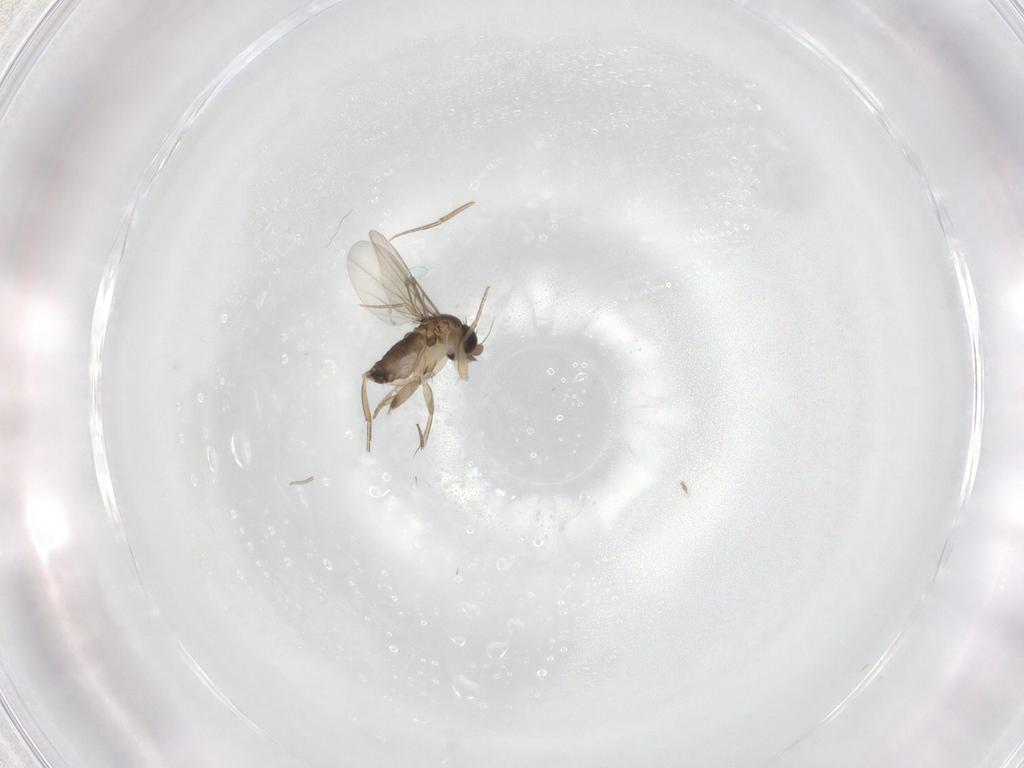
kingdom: Animalia
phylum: Arthropoda
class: Insecta
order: Diptera
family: Phoridae
